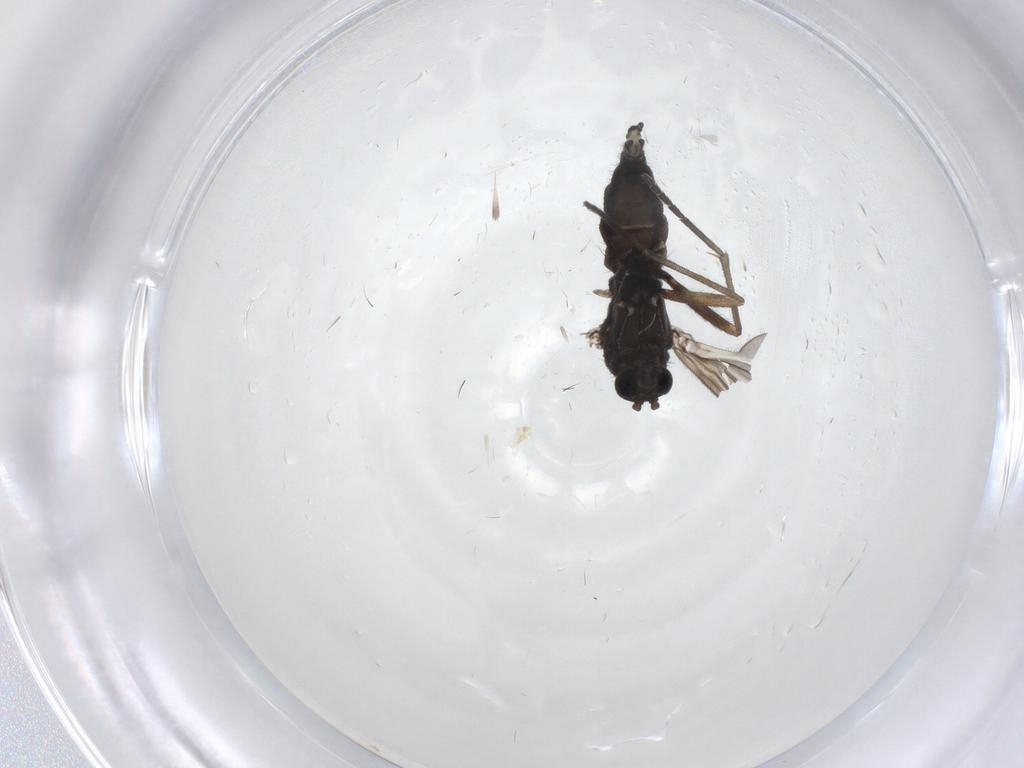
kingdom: Animalia
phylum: Arthropoda
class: Insecta
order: Diptera
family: Sciaridae
